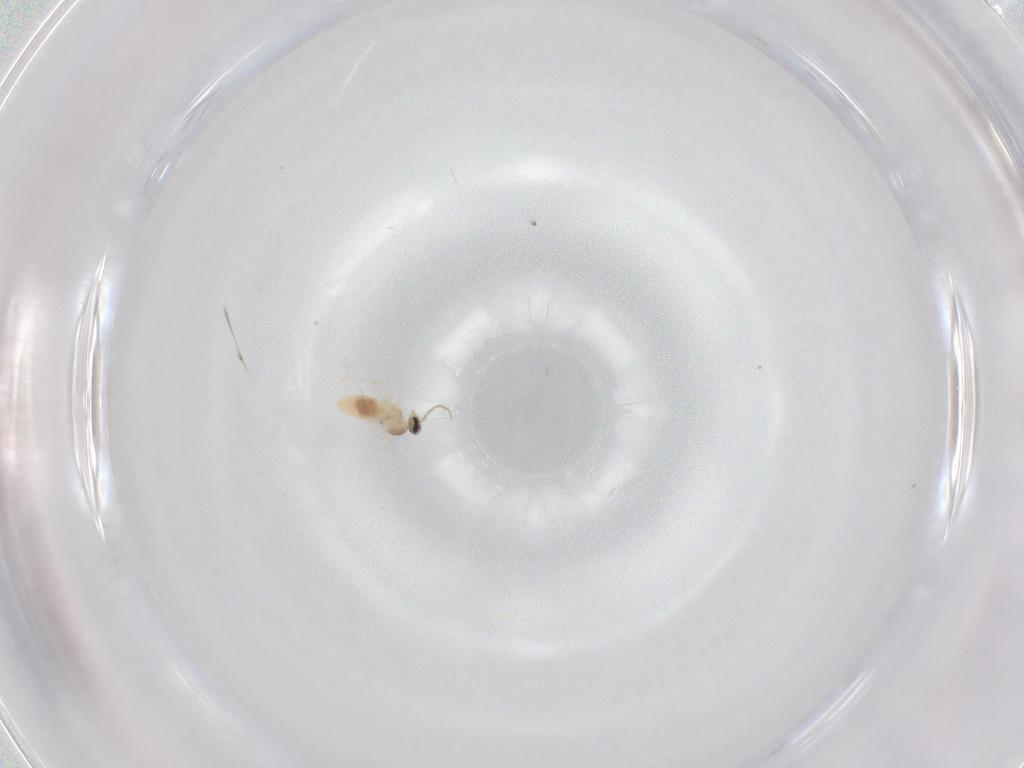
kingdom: Animalia
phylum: Arthropoda
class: Insecta
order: Diptera
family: Cecidomyiidae
